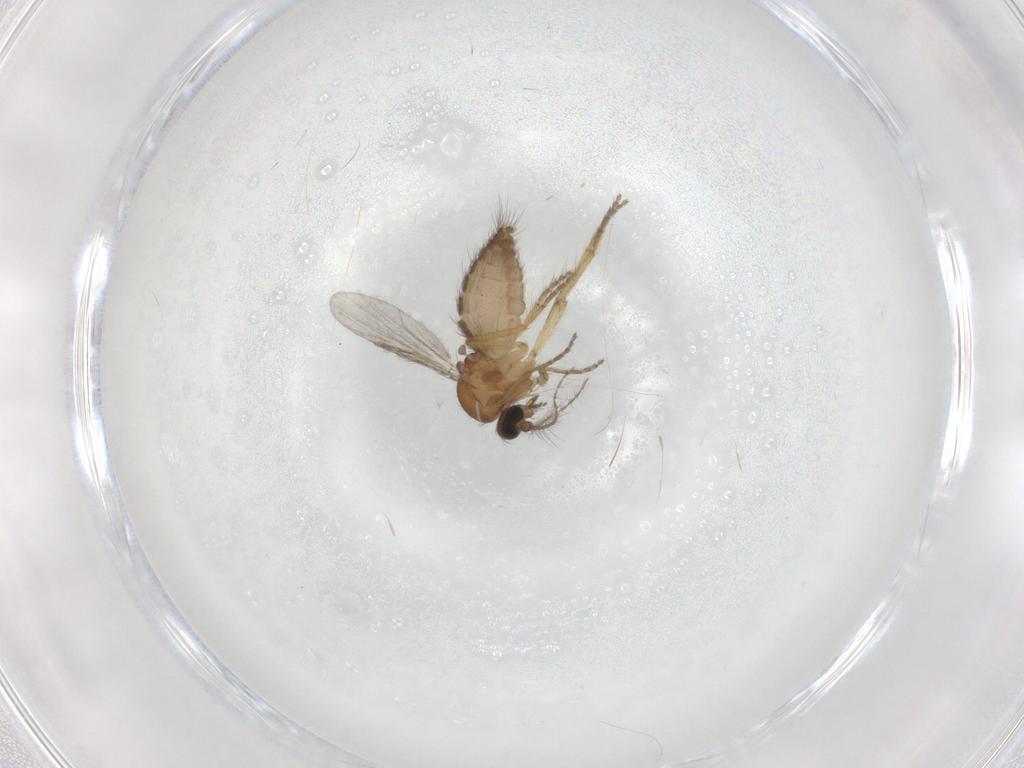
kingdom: Animalia
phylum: Arthropoda
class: Insecta
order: Diptera
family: Ceratopogonidae
